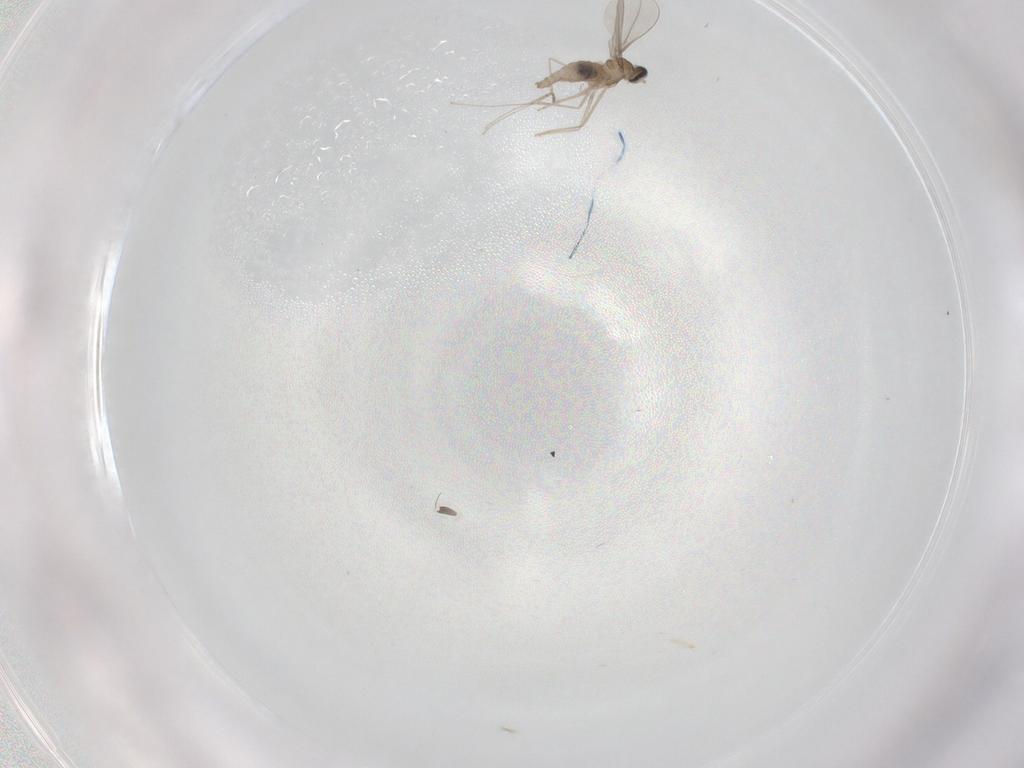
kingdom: Animalia
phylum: Arthropoda
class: Insecta
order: Diptera
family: Cecidomyiidae
